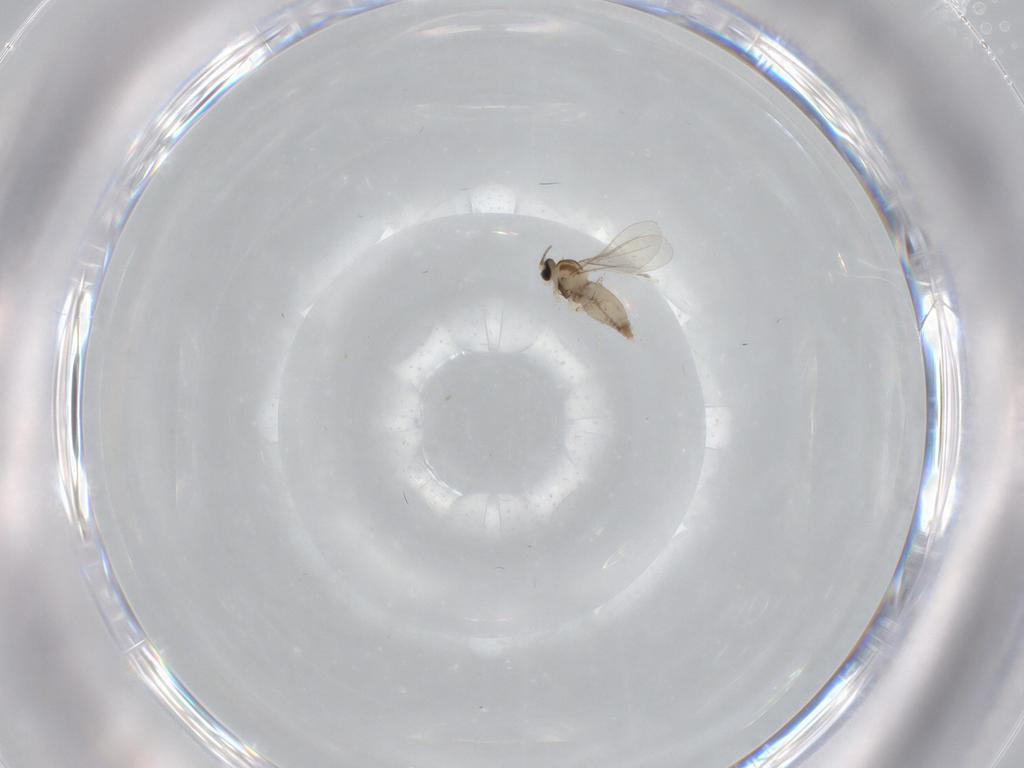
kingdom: Animalia
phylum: Arthropoda
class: Insecta
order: Diptera
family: Cecidomyiidae
